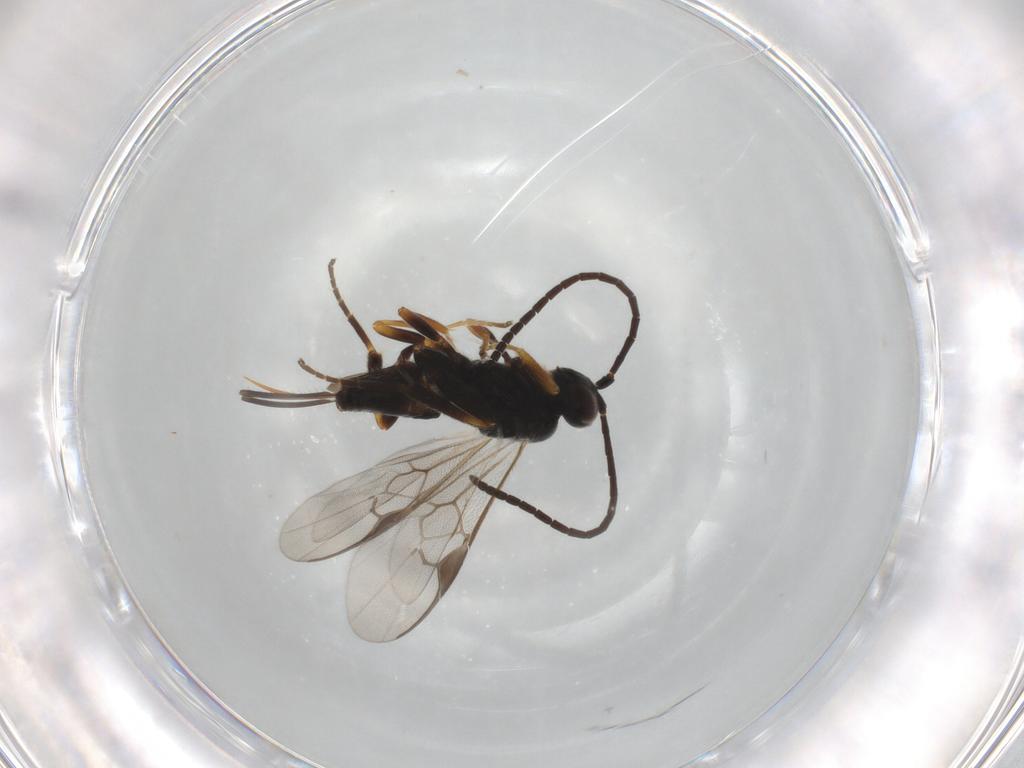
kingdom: Animalia
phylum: Arthropoda
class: Insecta
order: Hymenoptera
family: Braconidae
